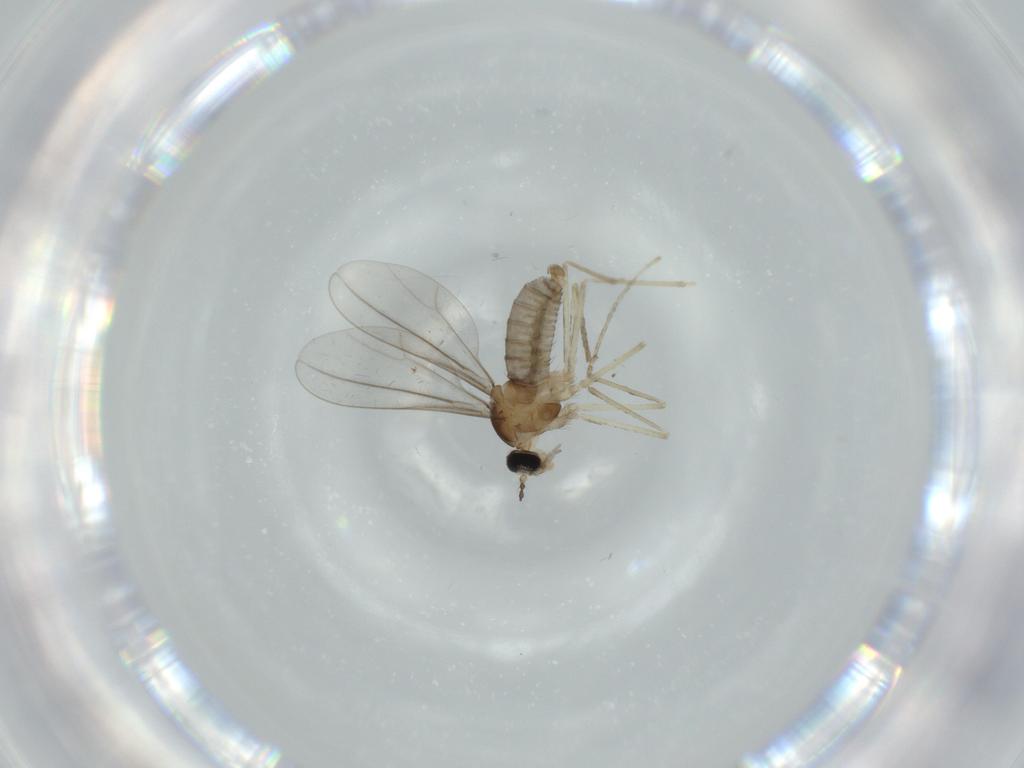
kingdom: Animalia
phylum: Arthropoda
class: Insecta
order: Diptera
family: Cecidomyiidae
